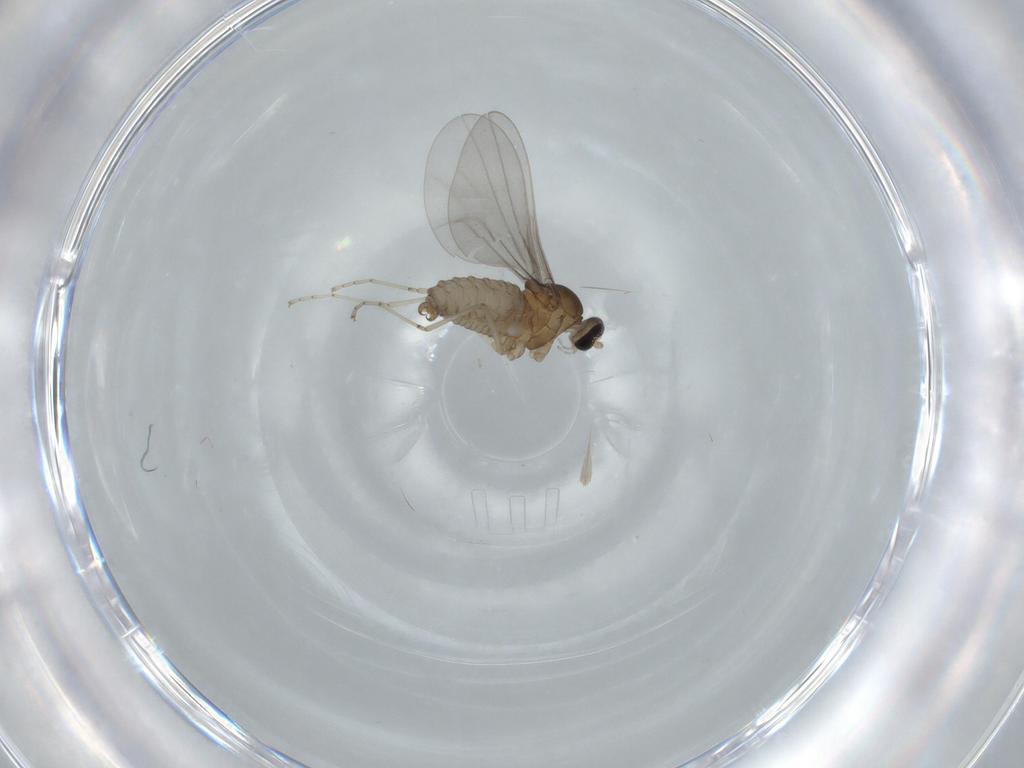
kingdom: Animalia
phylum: Arthropoda
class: Insecta
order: Diptera
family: Cecidomyiidae
